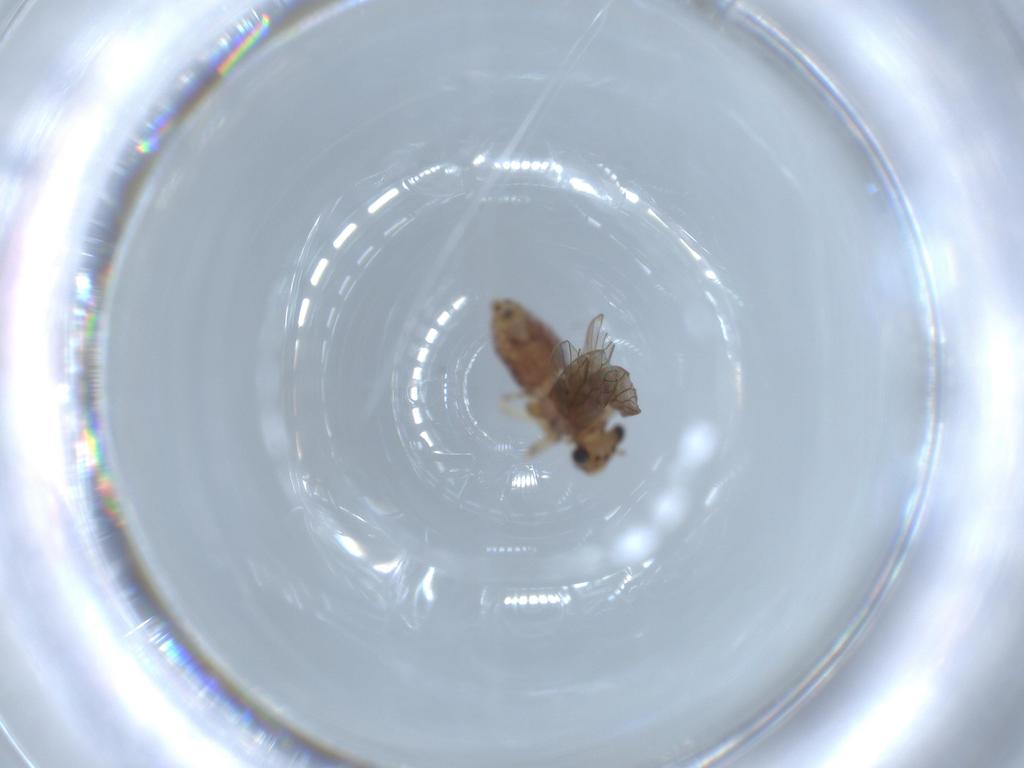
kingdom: Animalia
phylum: Arthropoda
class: Insecta
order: Psocodea
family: Lepidopsocidae
